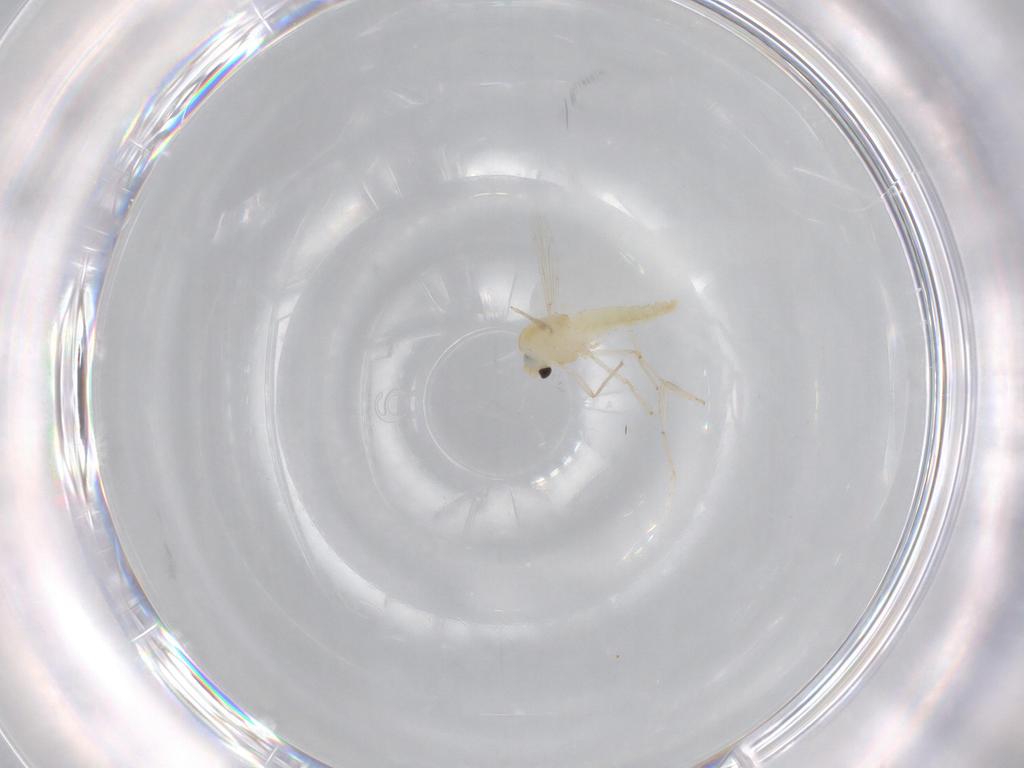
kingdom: Animalia
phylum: Arthropoda
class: Insecta
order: Diptera
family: Chironomidae
